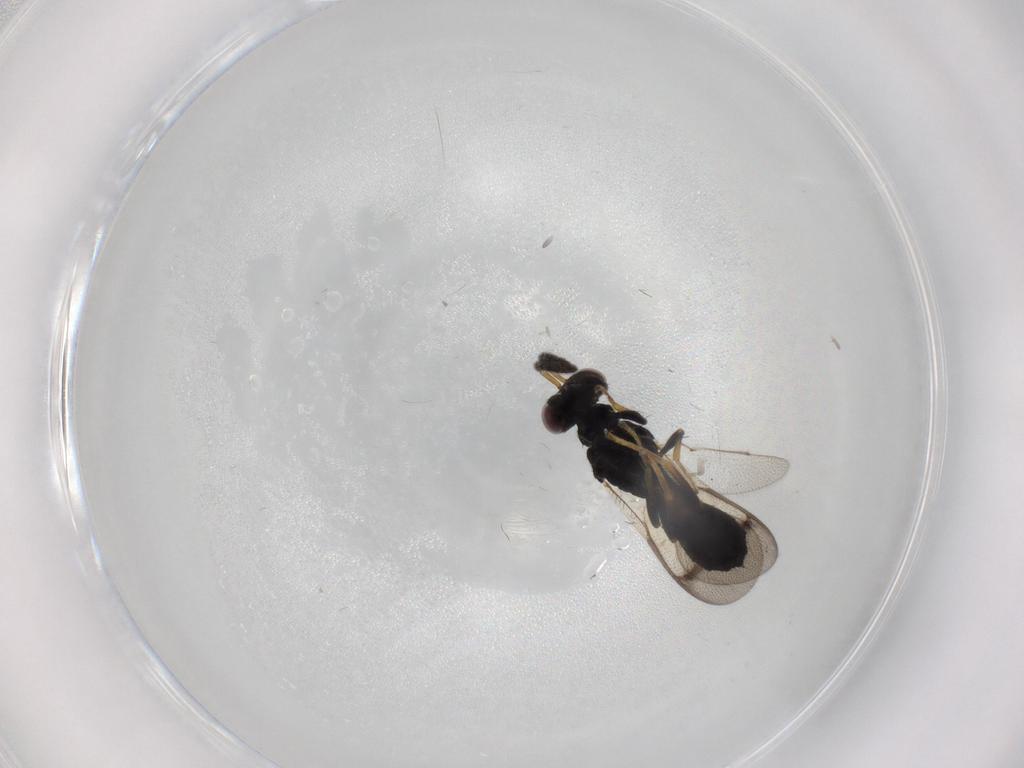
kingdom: Animalia
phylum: Arthropoda
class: Insecta
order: Hymenoptera
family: Pteromalidae
